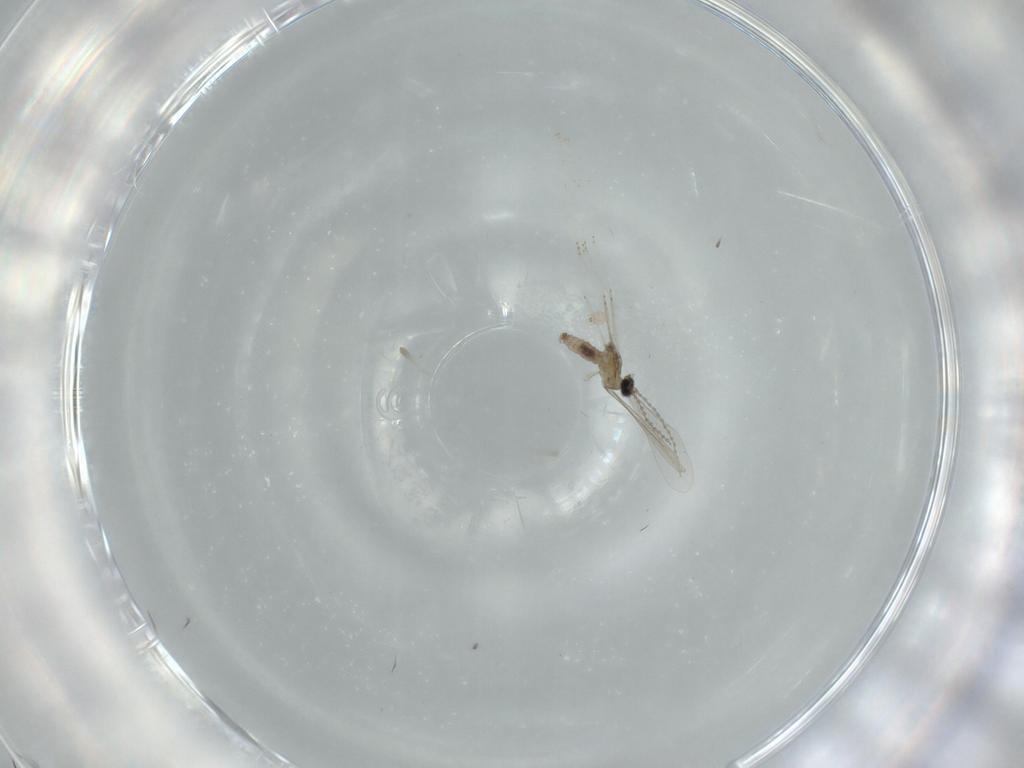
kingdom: Animalia
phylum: Arthropoda
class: Insecta
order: Diptera
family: Cecidomyiidae
